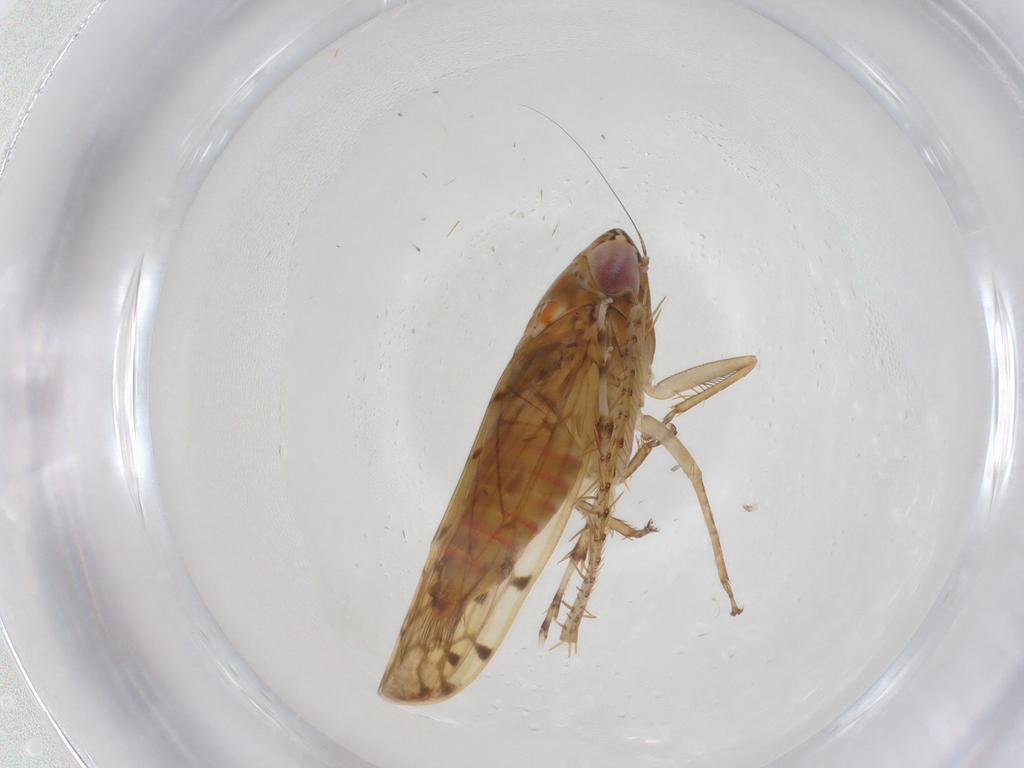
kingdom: Animalia
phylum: Arthropoda
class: Insecta
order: Hemiptera
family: Cicadellidae
